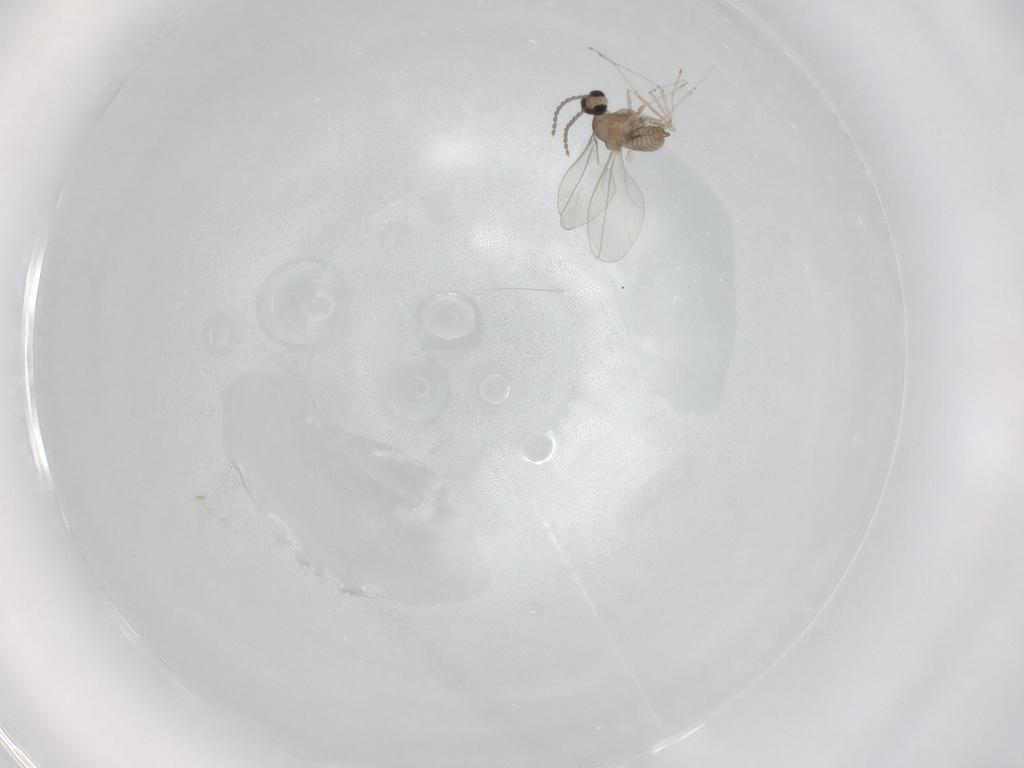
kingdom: Animalia
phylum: Arthropoda
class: Insecta
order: Diptera
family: Cecidomyiidae
